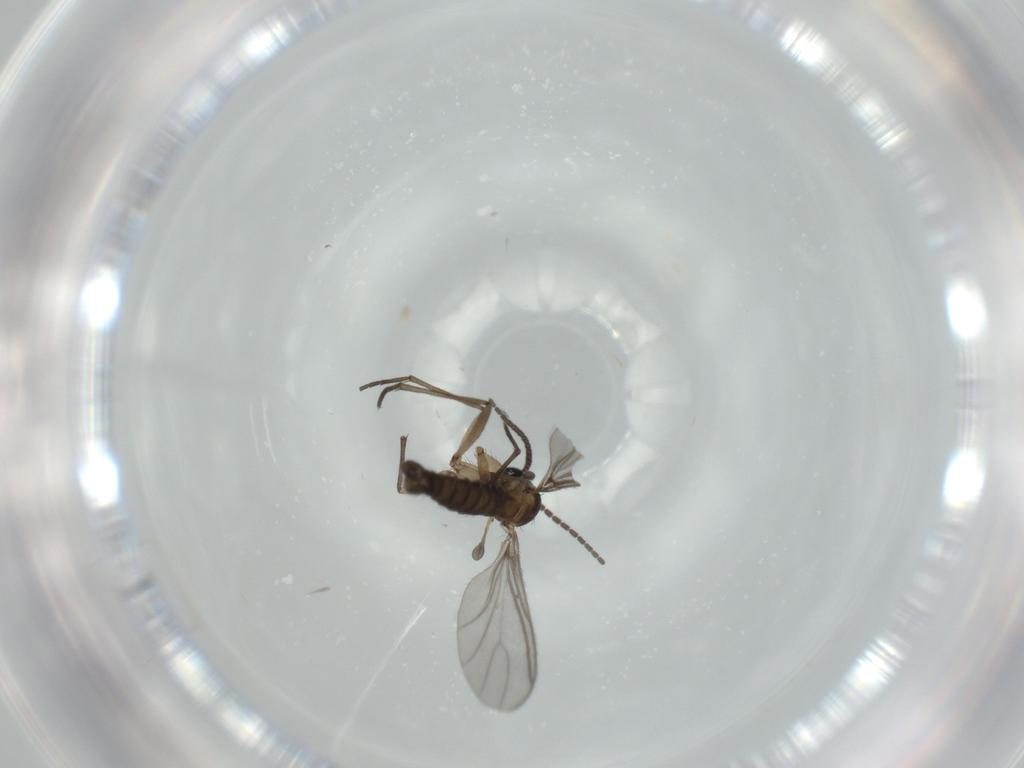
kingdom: Animalia
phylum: Arthropoda
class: Insecta
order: Diptera
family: Sciaridae
